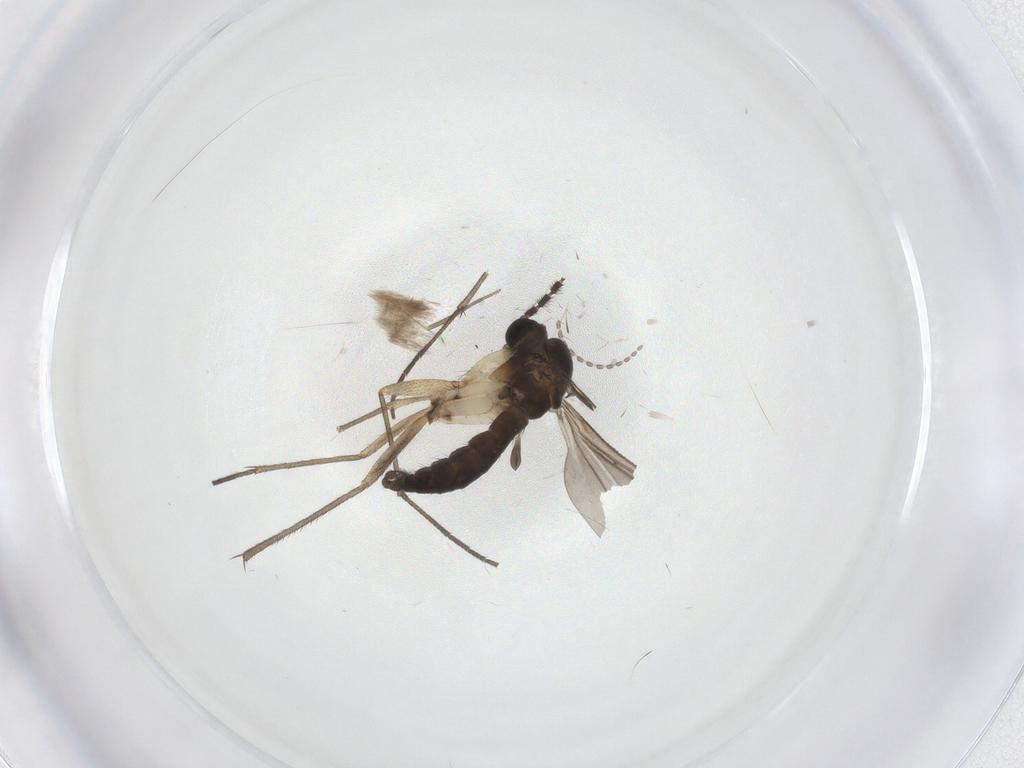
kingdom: Animalia
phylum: Arthropoda
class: Insecta
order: Diptera
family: Sciaridae
